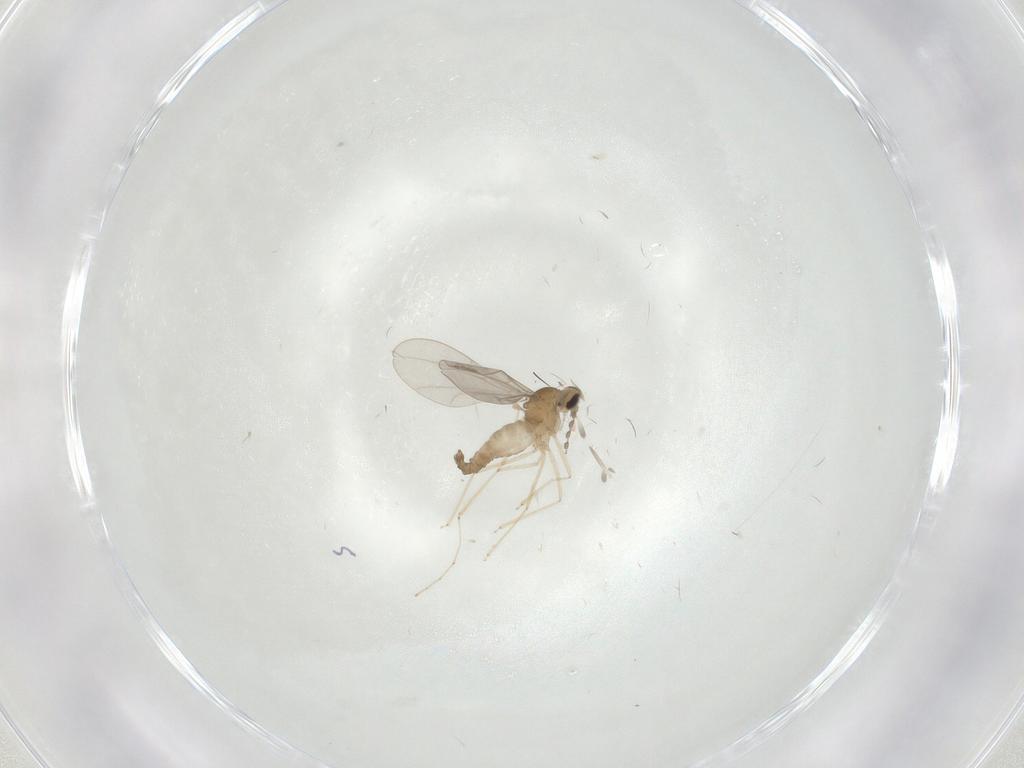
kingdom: Animalia
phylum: Arthropoda
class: Insecta
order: Diptera
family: Cecidomyiidae
